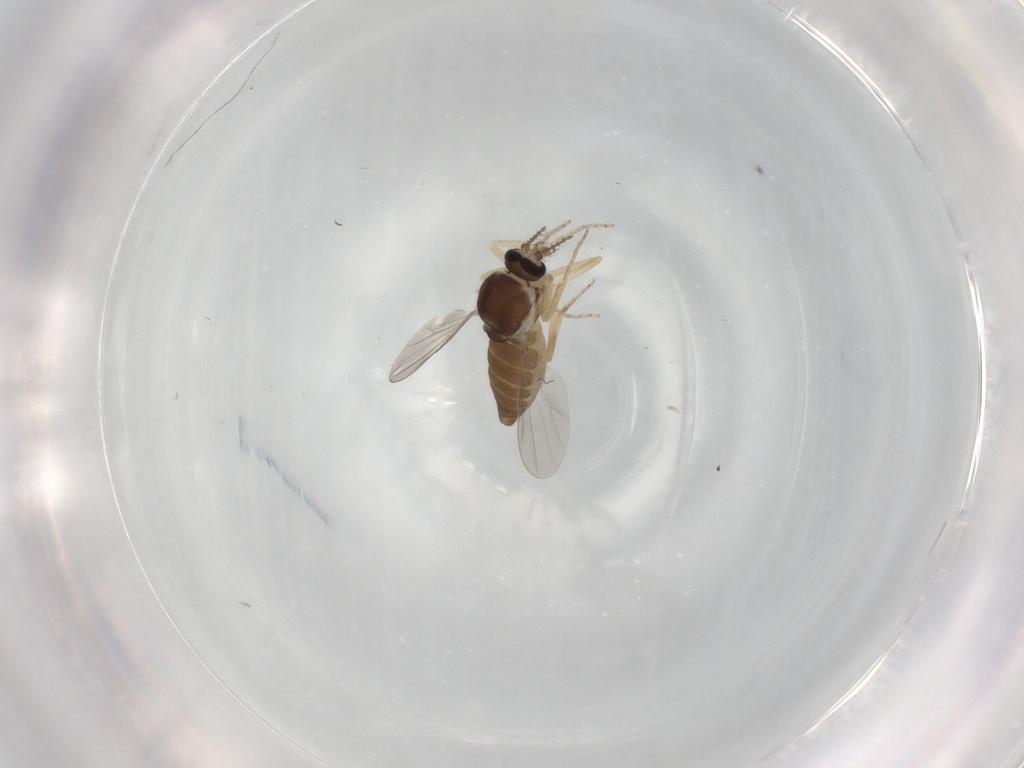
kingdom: Animalia
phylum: Arthropoda
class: Insecta
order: Diptera
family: Ceratopogonidae
